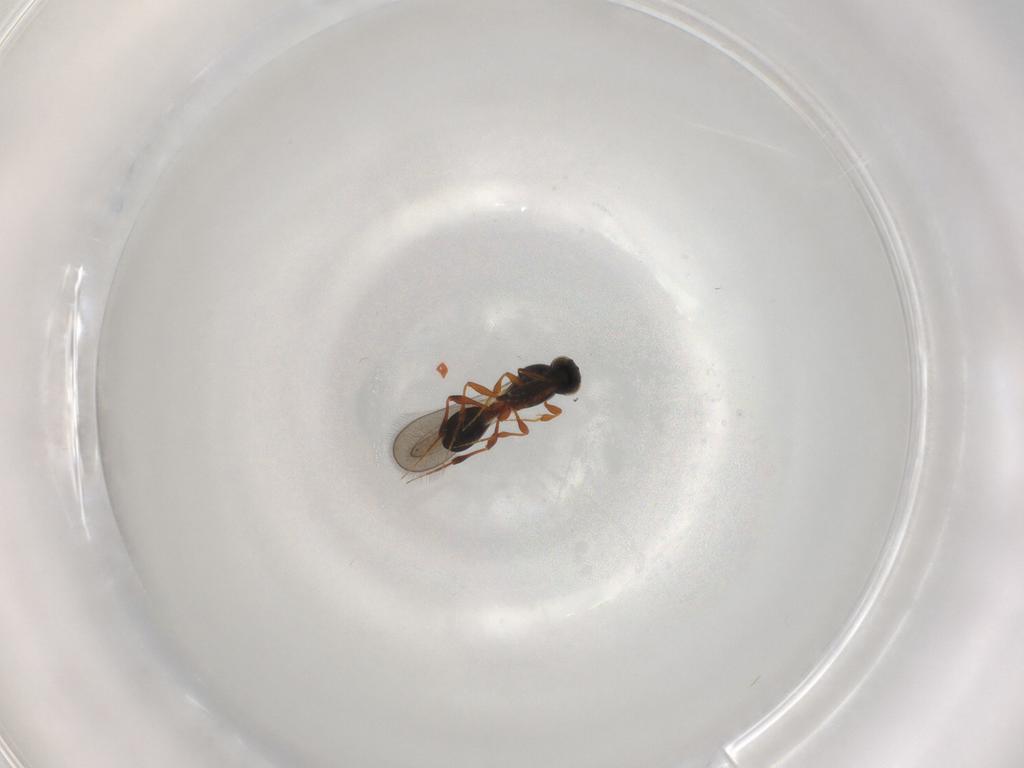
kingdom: Animalia
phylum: Arthropoda
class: Insecta
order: Hymenoptera
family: Platygastridae
